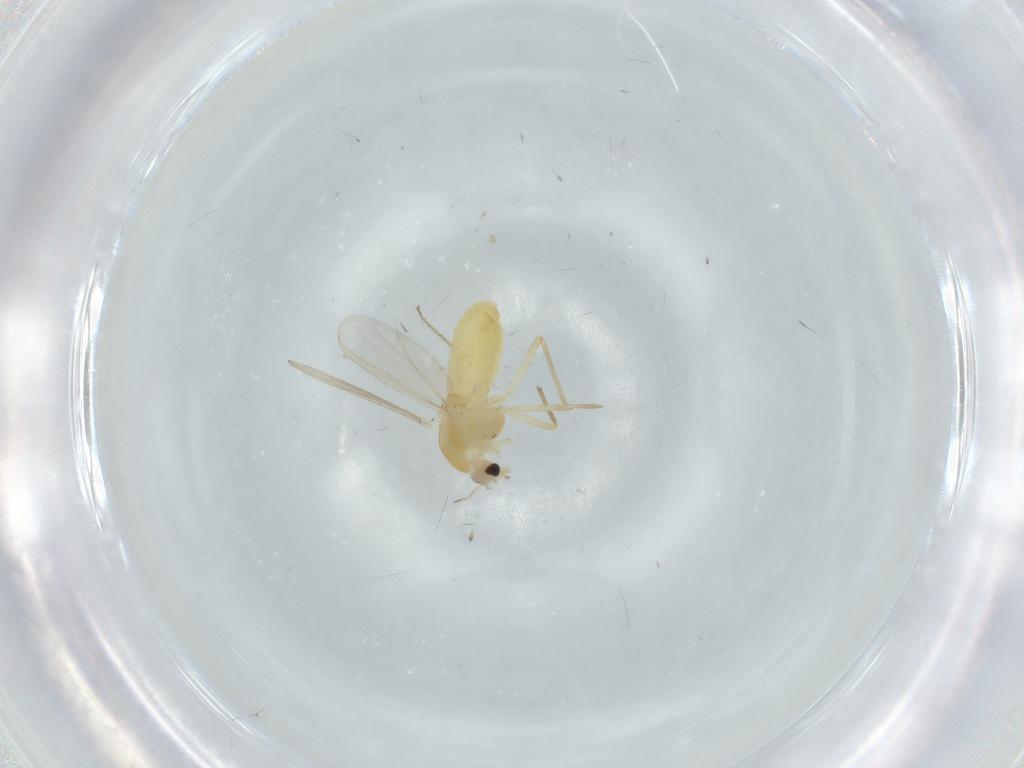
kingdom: Animalia
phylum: Arthropoda
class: Insecta
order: Diptera
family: Chironomidae
